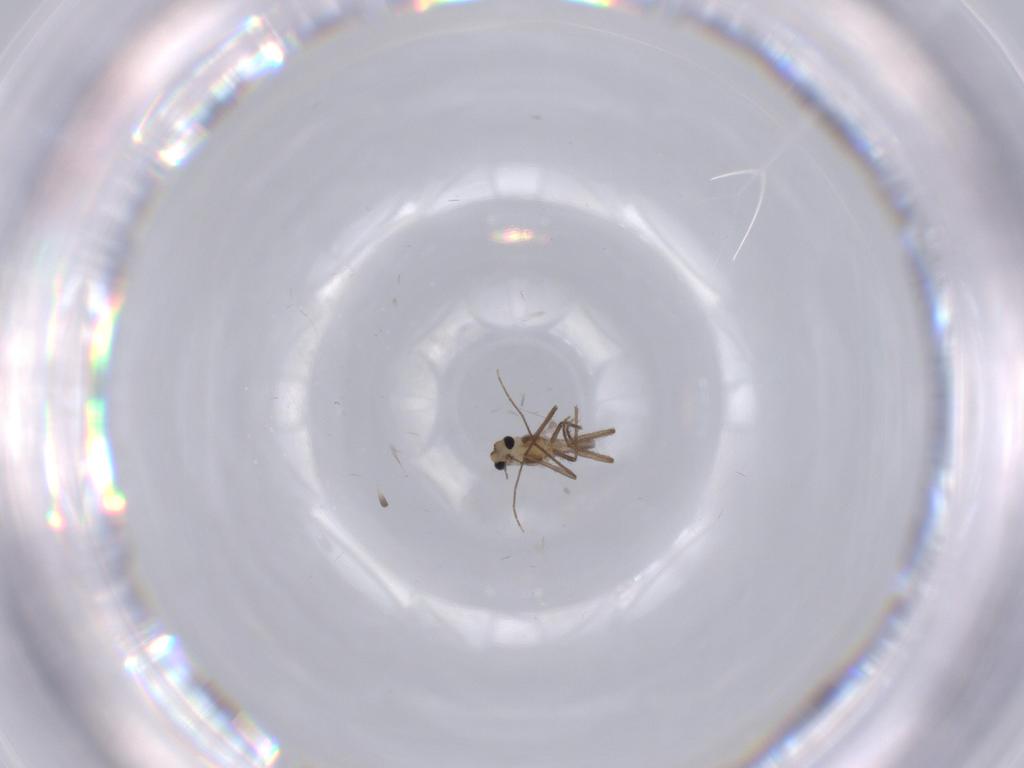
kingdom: Animalia
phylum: Arthropoda
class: Insecta
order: Diptera
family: Chironomidae
